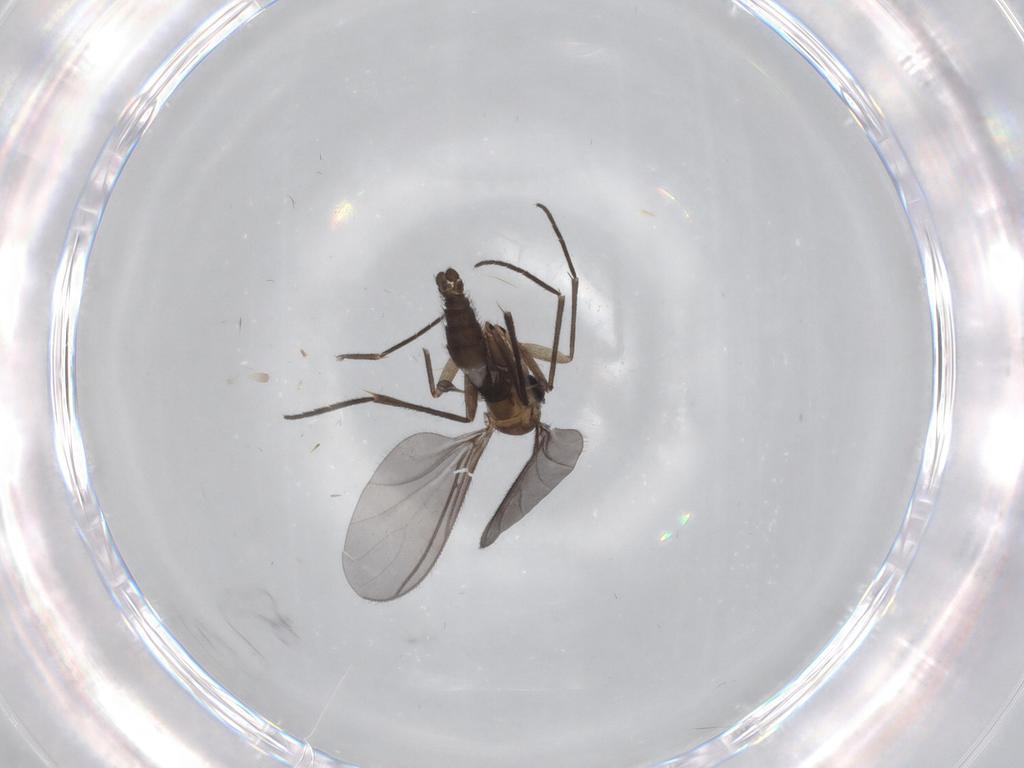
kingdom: Animalia
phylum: Arthropoda
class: Insecta
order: Diptera
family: Sciaridae
